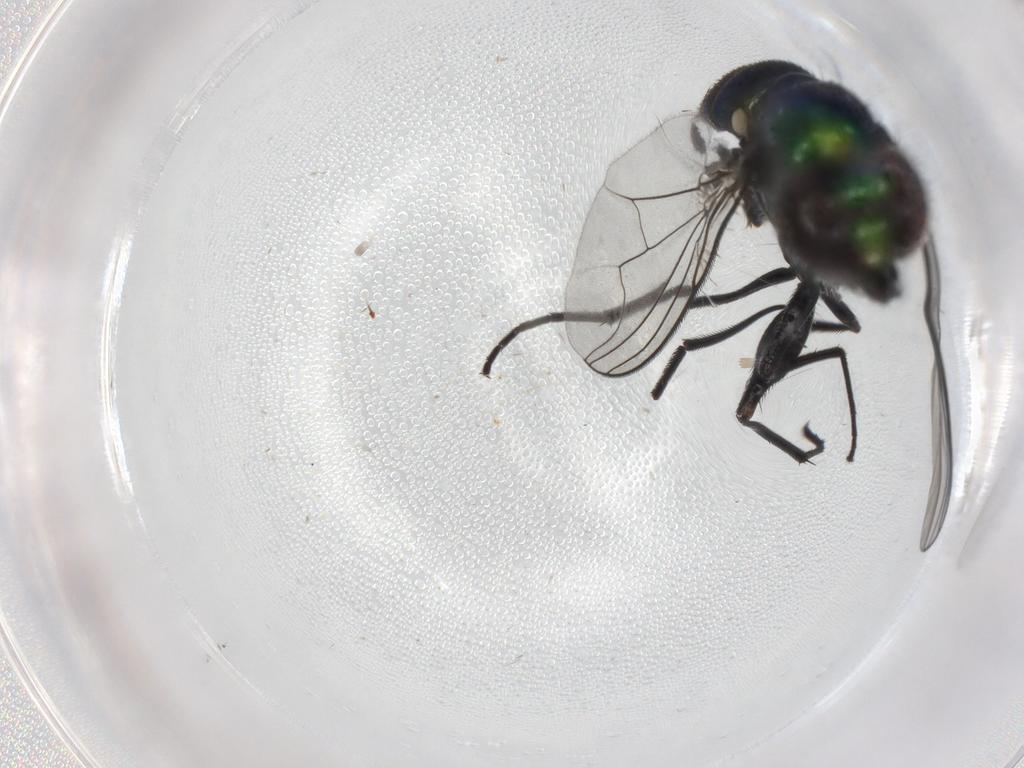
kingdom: Animalia
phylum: Arthropoda
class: Insecta
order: Diptera
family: Dolichopodidae
